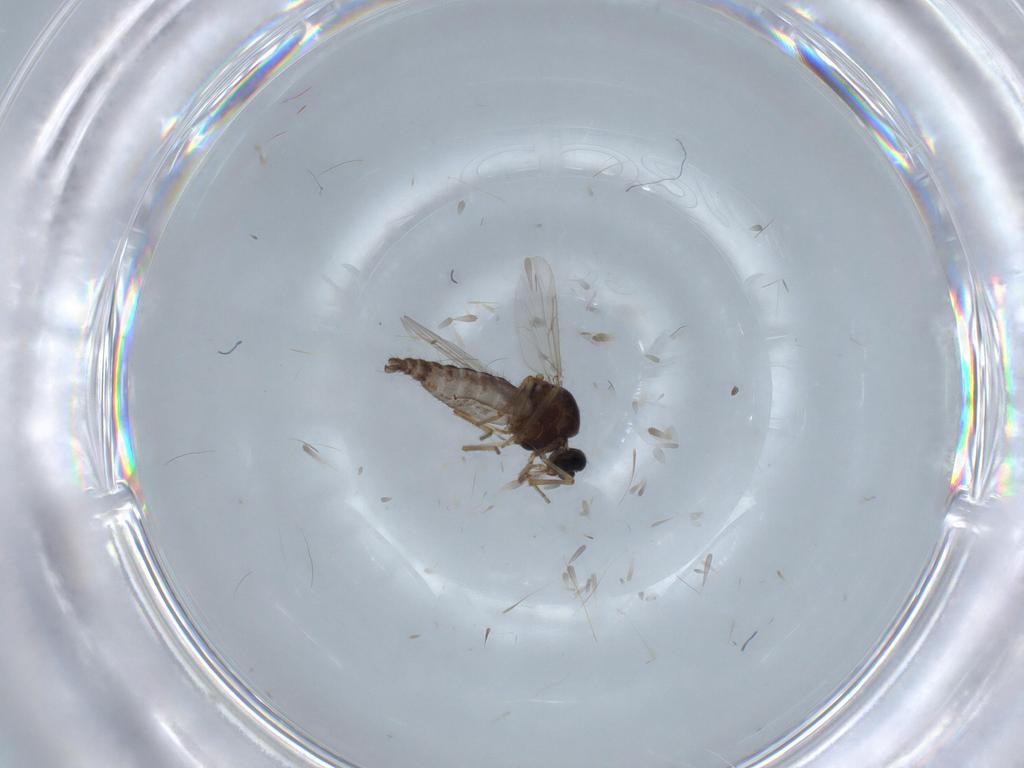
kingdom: Animalia
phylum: Arthropoda
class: Insecta
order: Diptera
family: Ceratopogonidae
